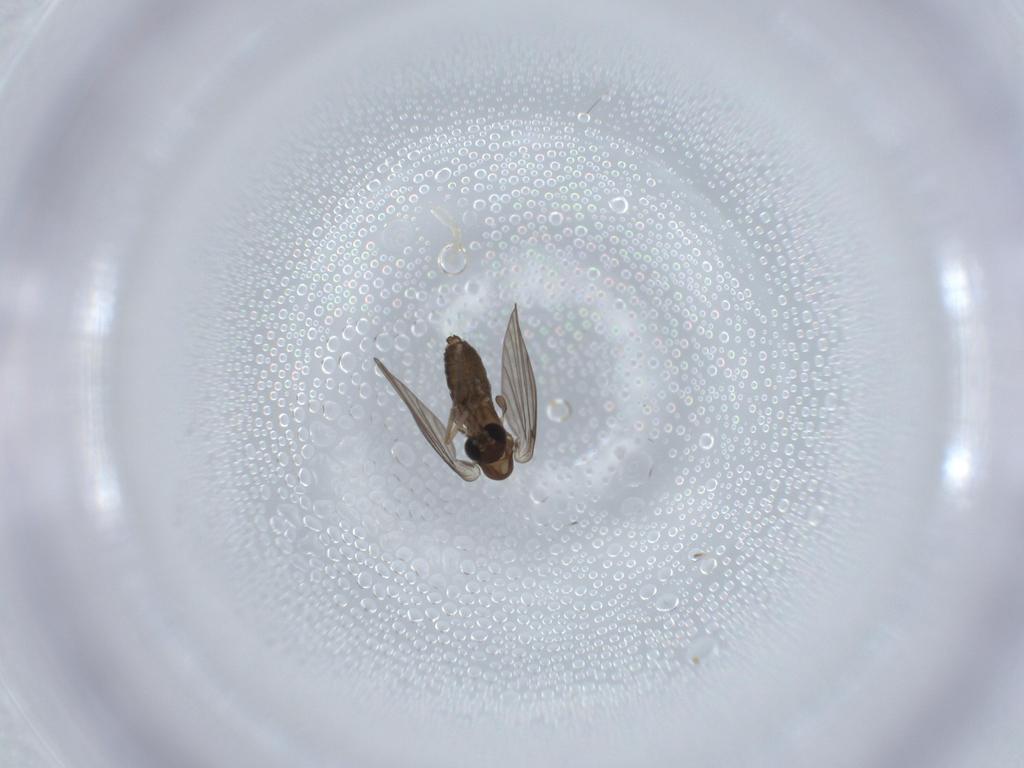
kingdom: Animalia
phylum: Arthropoda
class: Insecta
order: Diptera
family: Psychodidae
